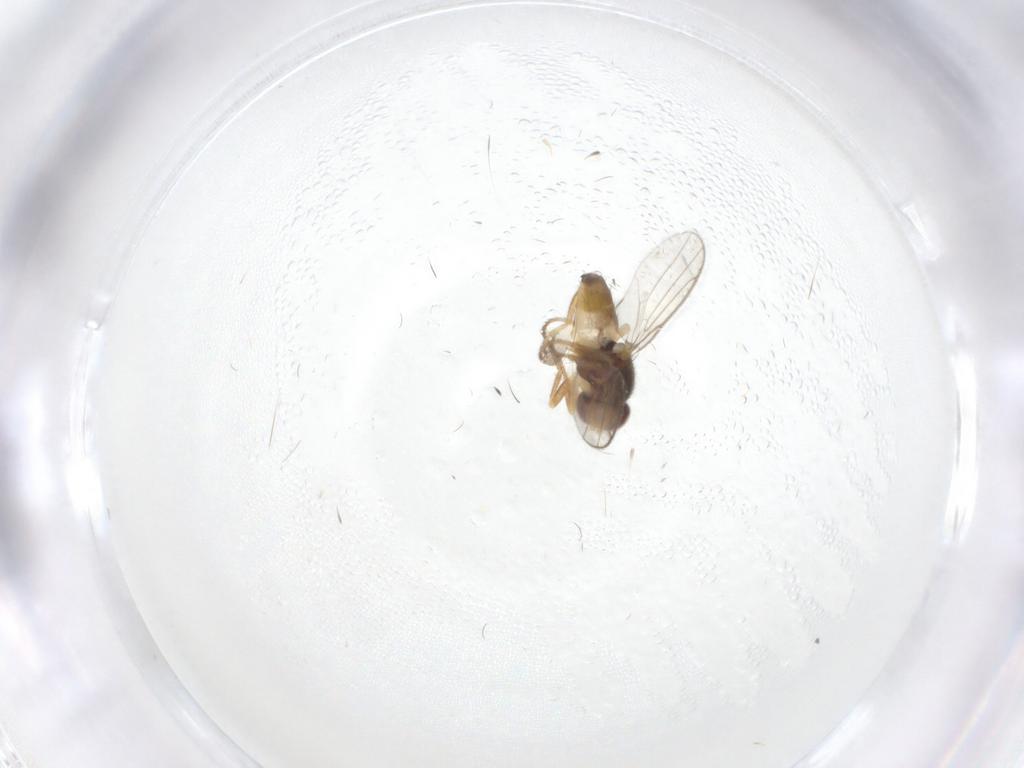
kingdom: Animalia
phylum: Arthropoda
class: Insecta
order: Diptera
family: Chloropidae
